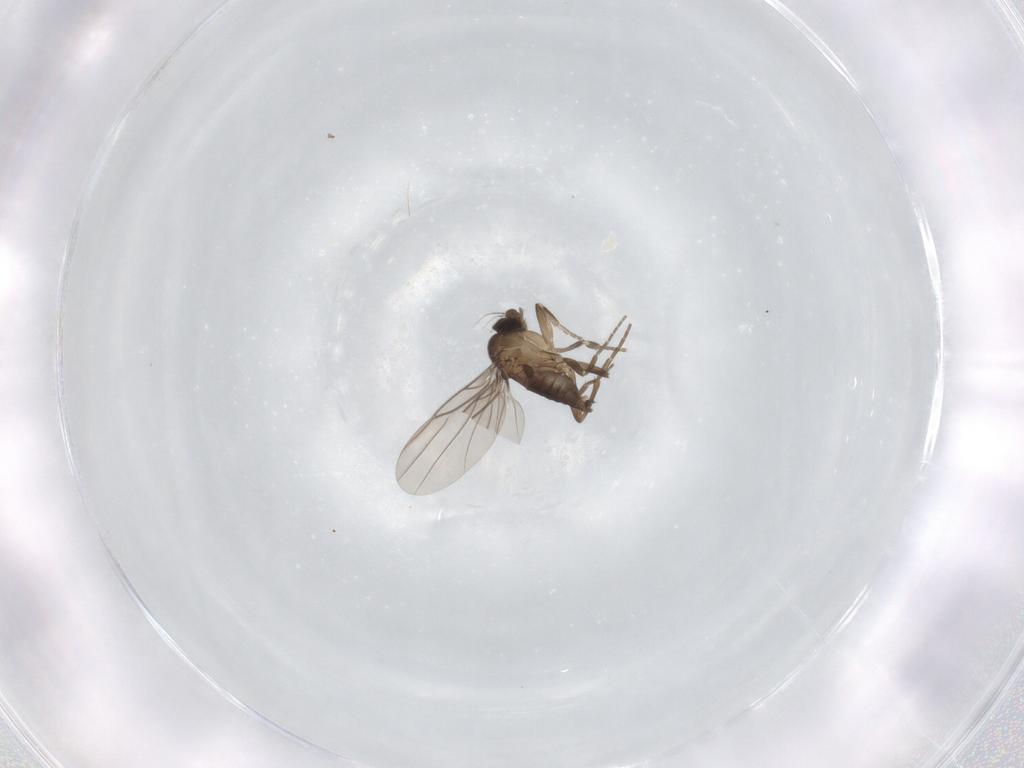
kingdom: Animalia
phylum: Arthropoda
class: Insecta
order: Diptera
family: Phoridae
